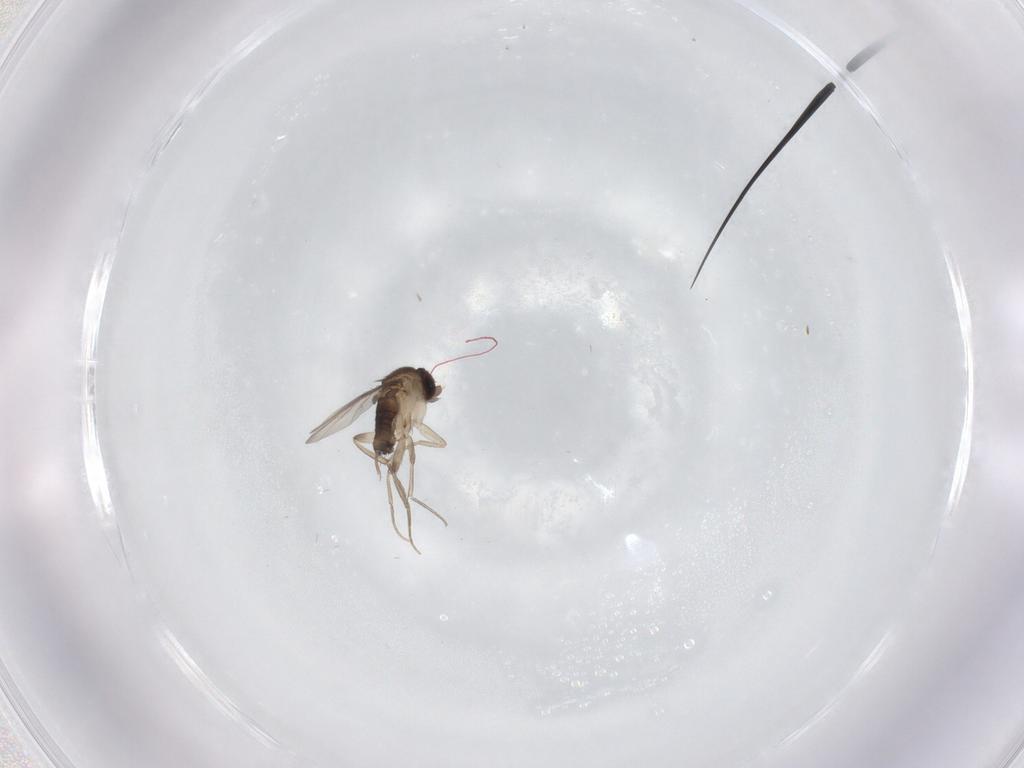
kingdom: Animalia
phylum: Arthropoda
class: Insecta
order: Diptera
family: Phoridae
